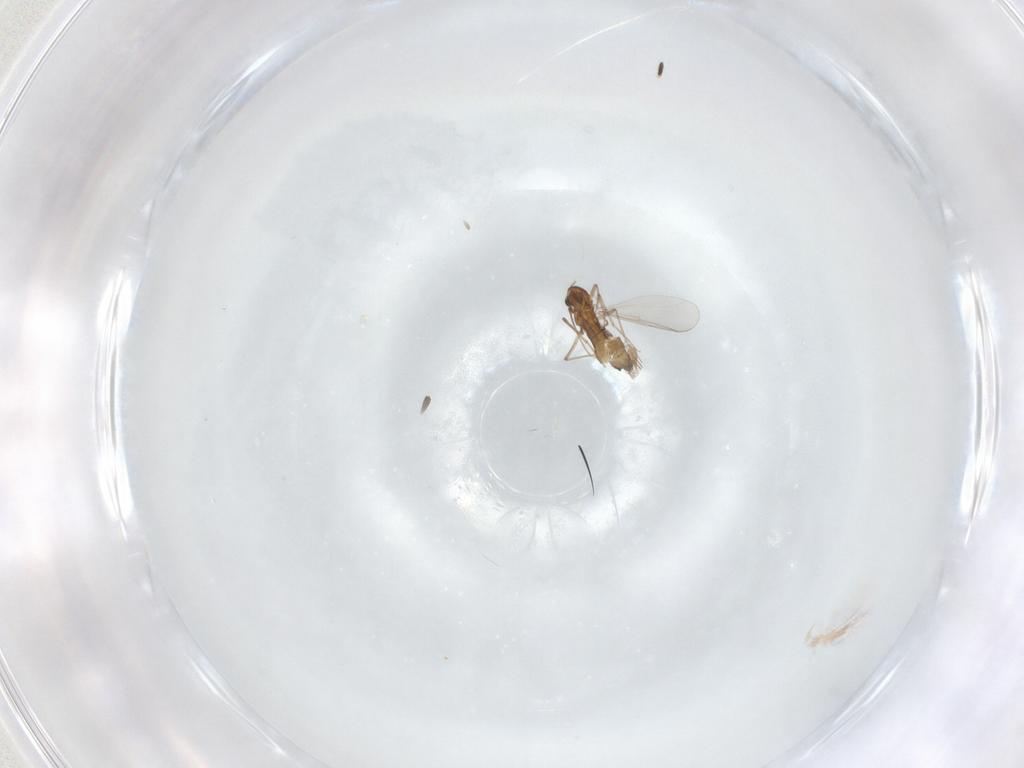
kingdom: Animalia
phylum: Arthropoda
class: Insecta
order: Diptera
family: Chironomidae
